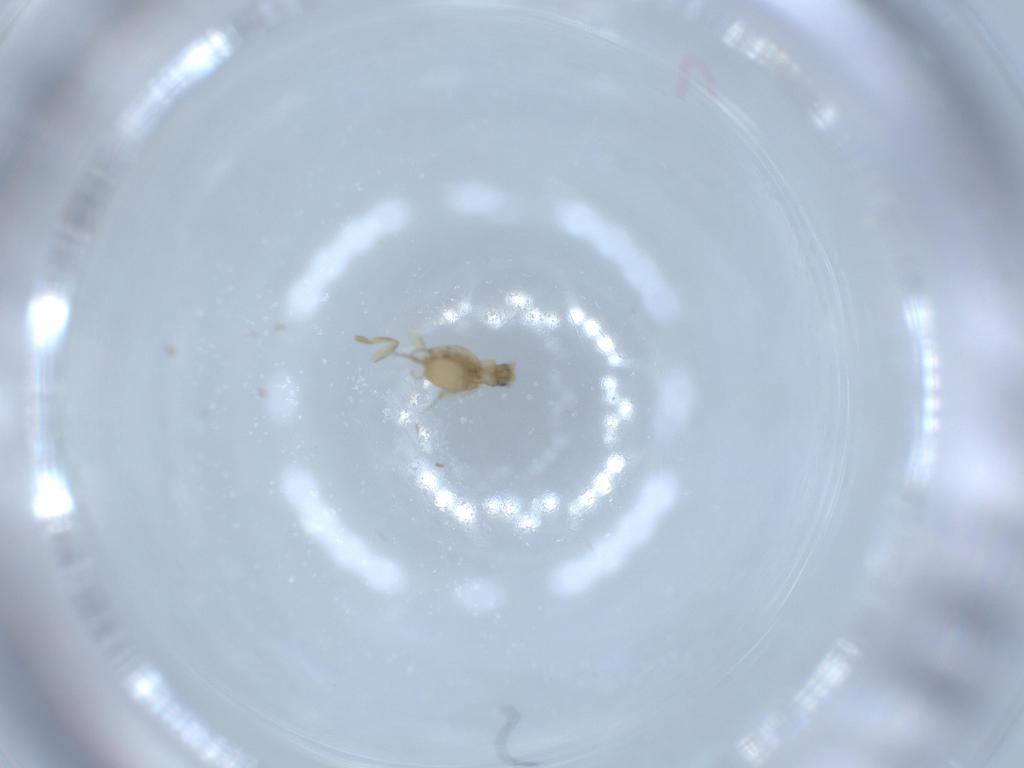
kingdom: Animalia
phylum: Arthropoda
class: Insecta
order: Diptera
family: Phoridae
